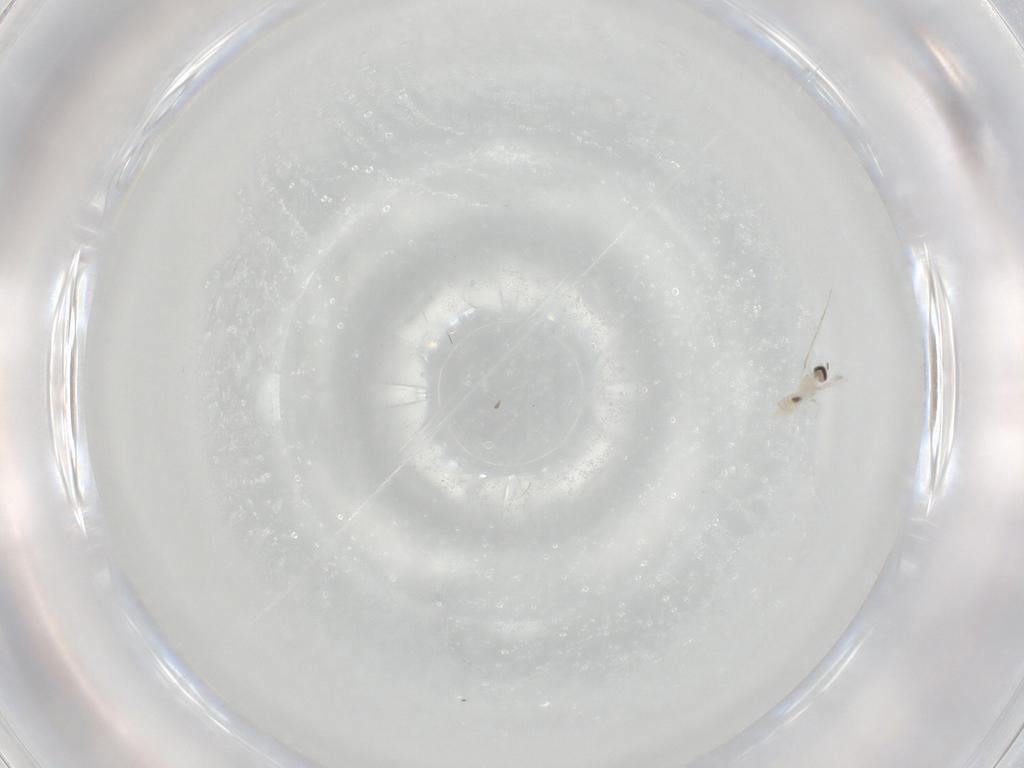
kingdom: Animalia
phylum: Arthropoda
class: Insecta
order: Diptera
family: Cecidomyiidae
